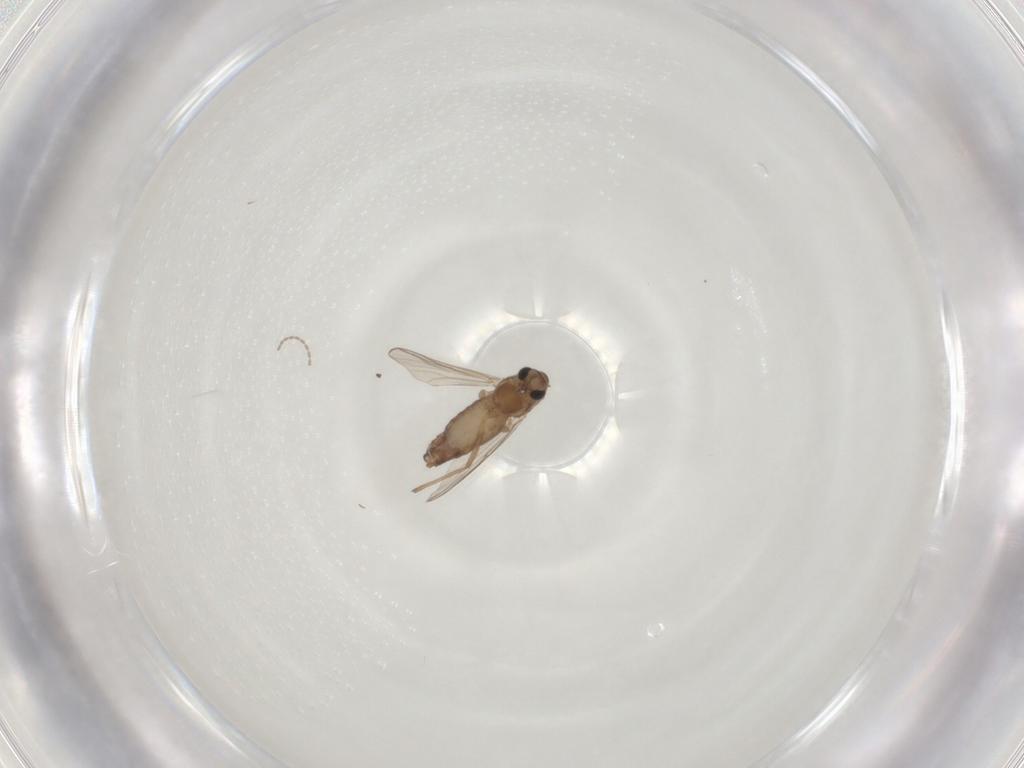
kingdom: Animalia
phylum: Arthropoda
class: Insecta
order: Diptera
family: Chironomidae
